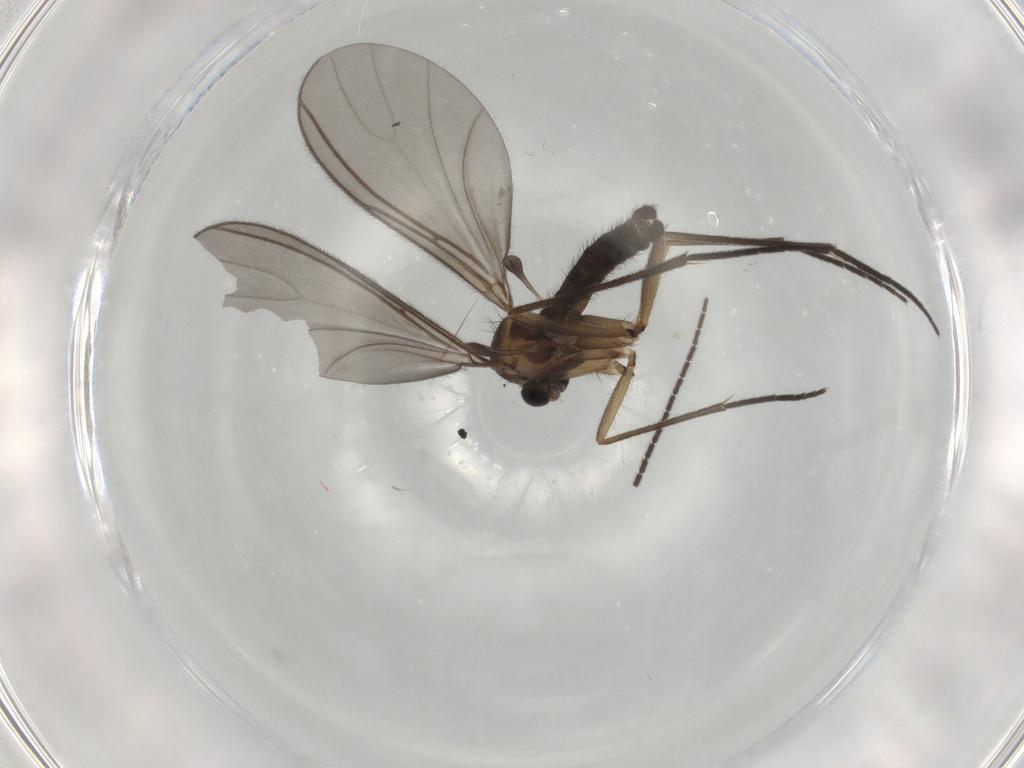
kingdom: Animalia
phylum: Arthropoda
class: Insecta
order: Diptera
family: Sciaridae
